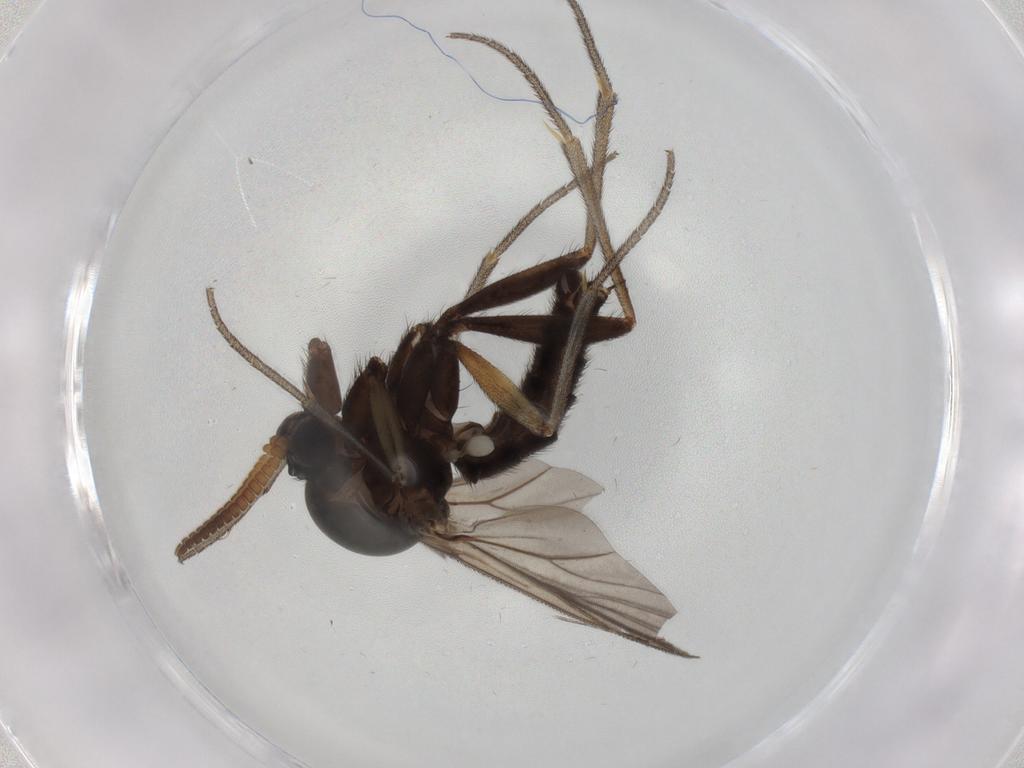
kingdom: Animalia
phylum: Arthropoda
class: Insecta
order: Diptera
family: Cecidomyiidae
